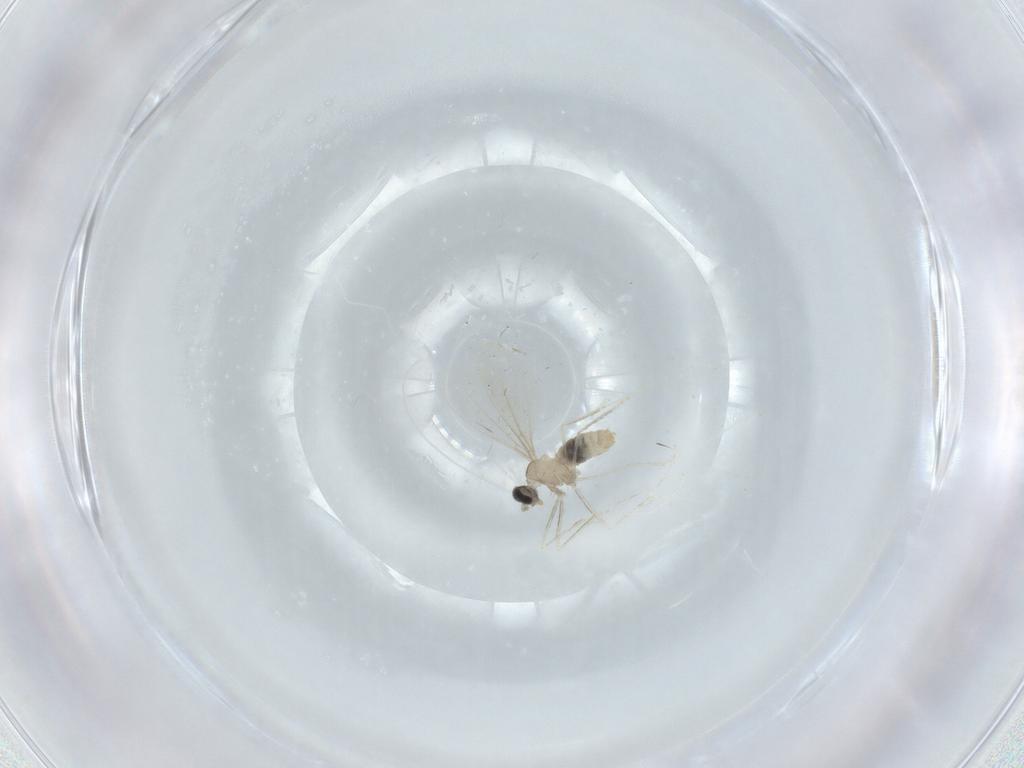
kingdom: Animalia
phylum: Arthropoda
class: Insecta
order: Diptera
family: Cecidomyiidae
